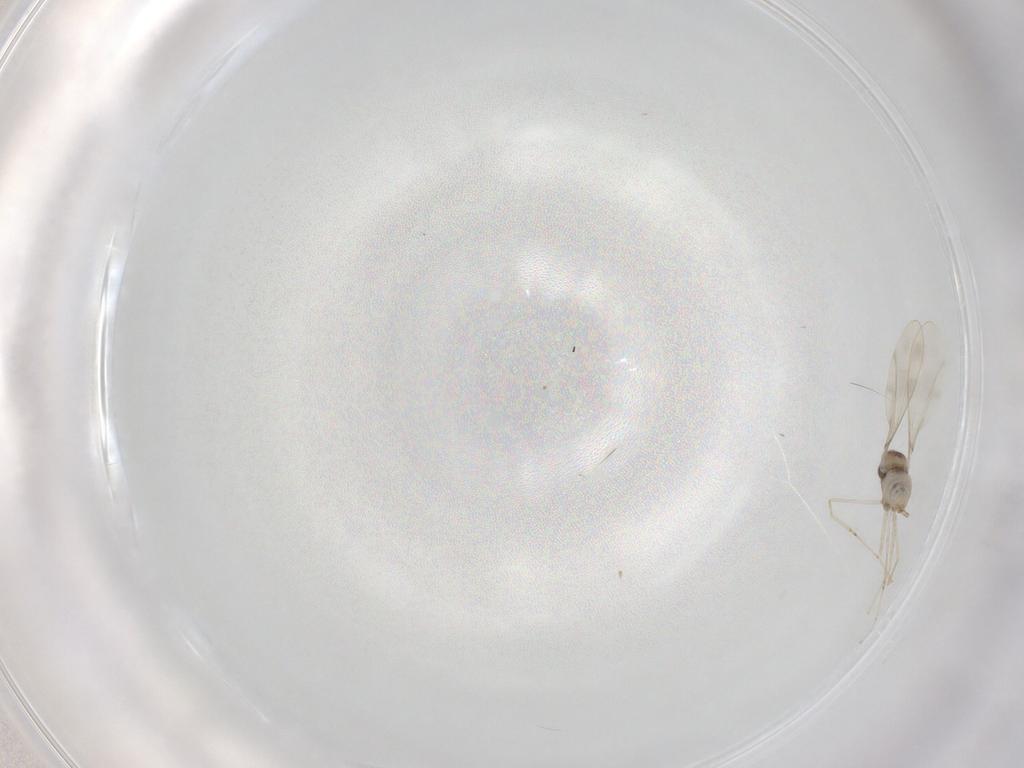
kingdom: Animalia
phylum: Arthropoda
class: Insecta
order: Diptera
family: Cecidomyiidae
